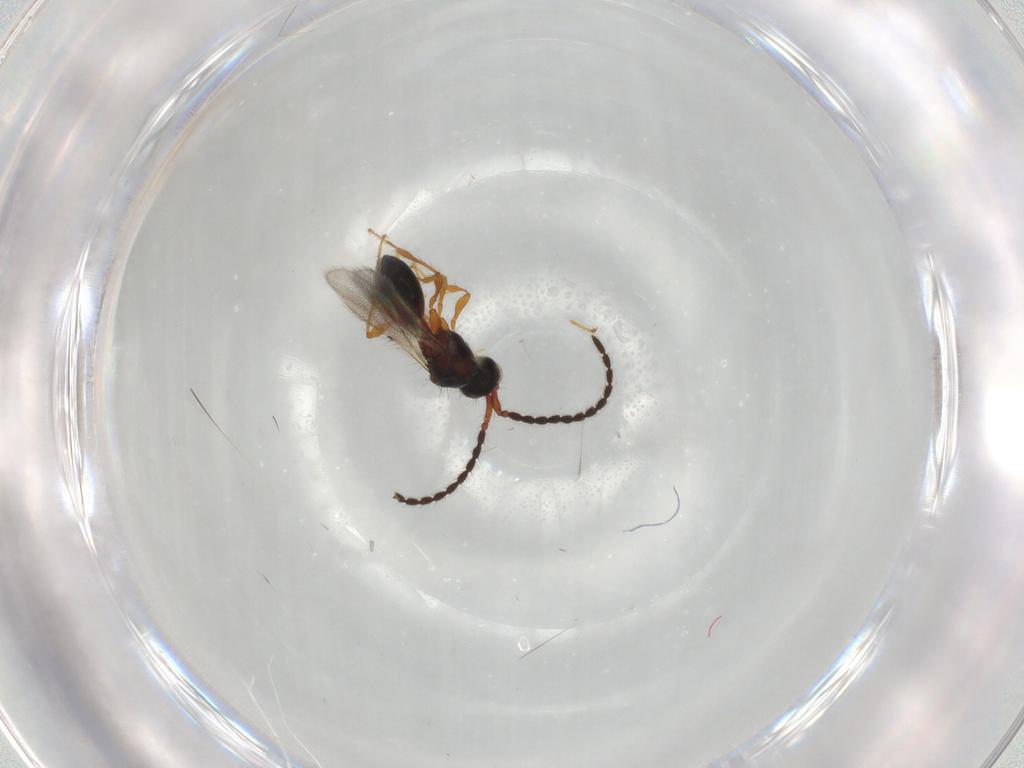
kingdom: Animalia
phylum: Arthropoda
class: Insecta
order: Hymenoptera
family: Diapriidae
